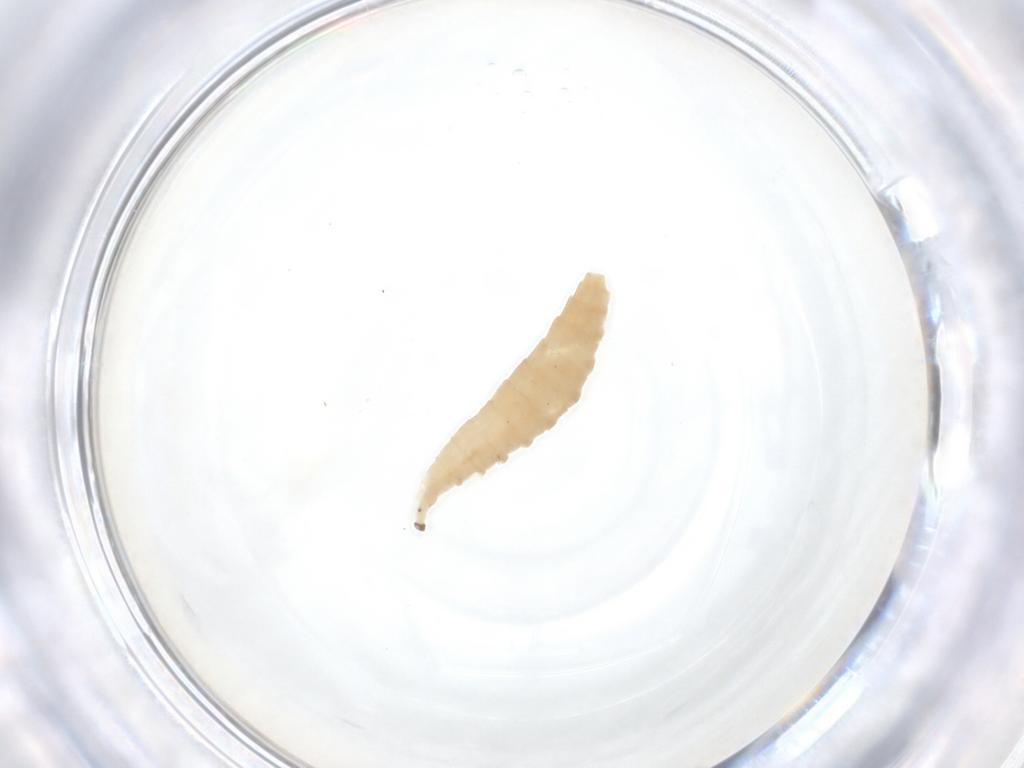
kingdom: Animalia
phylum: Arthropoda
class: Insecta
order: Diptera
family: Cecidomyiidae
